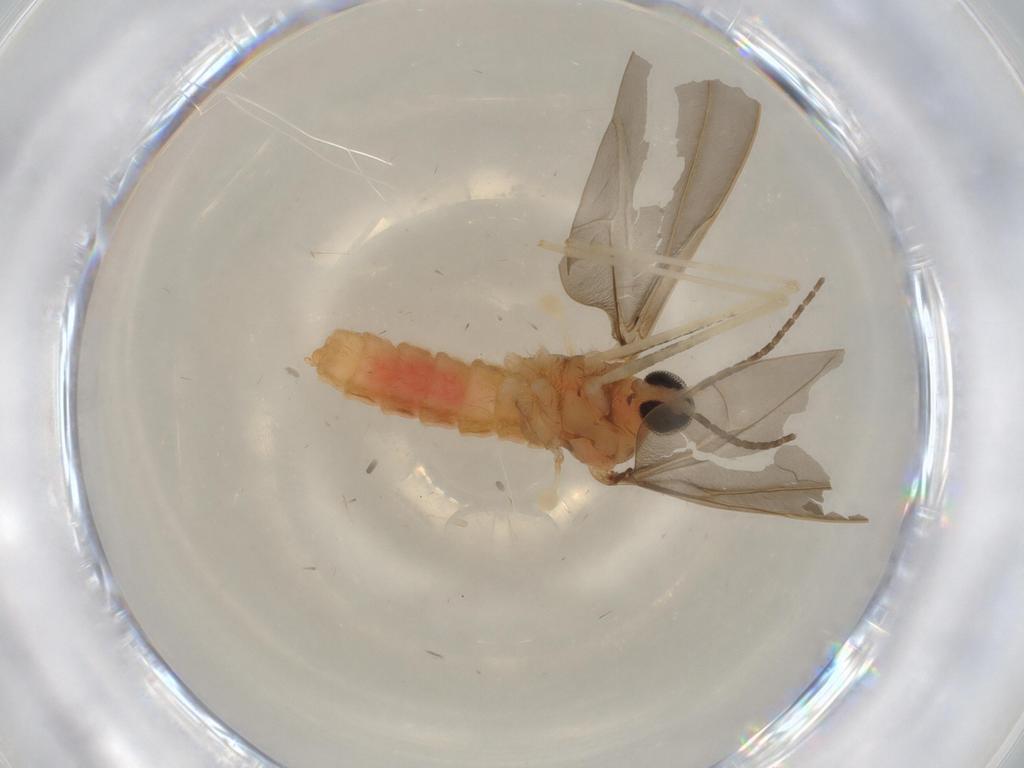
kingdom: Animalia
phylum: Arthropoda
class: Insecta
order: Diptera
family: Cecidomyiidae
